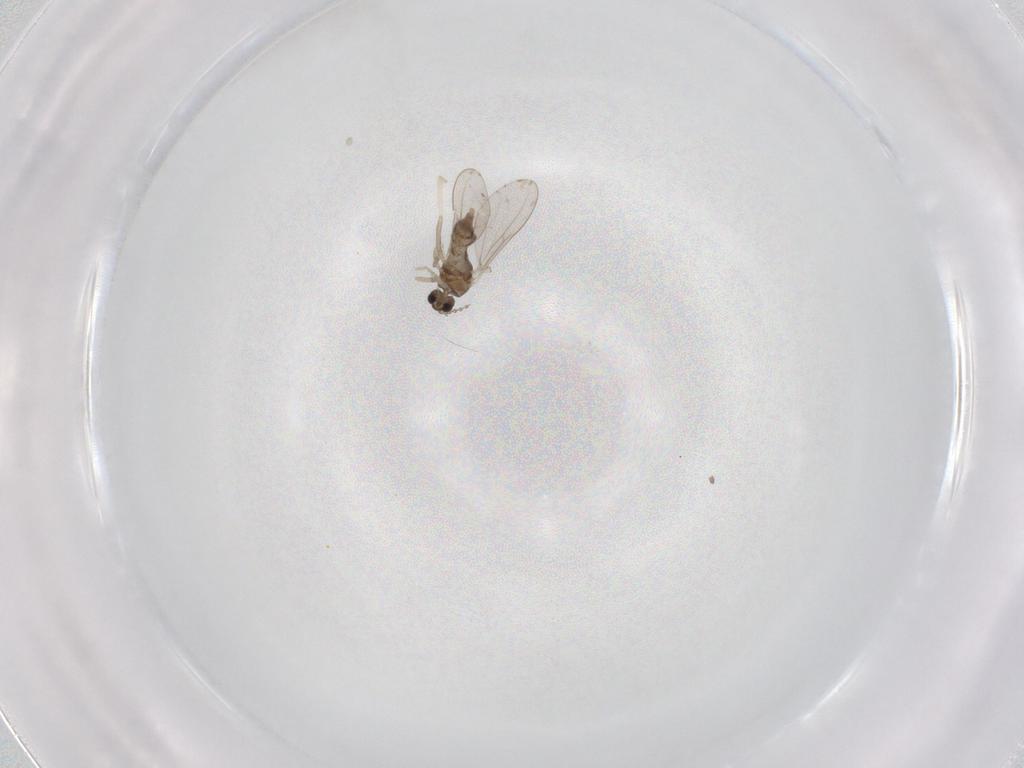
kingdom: Animalia
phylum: Arthropoda
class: Insecta
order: Diptera
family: Cecidomyiidae
